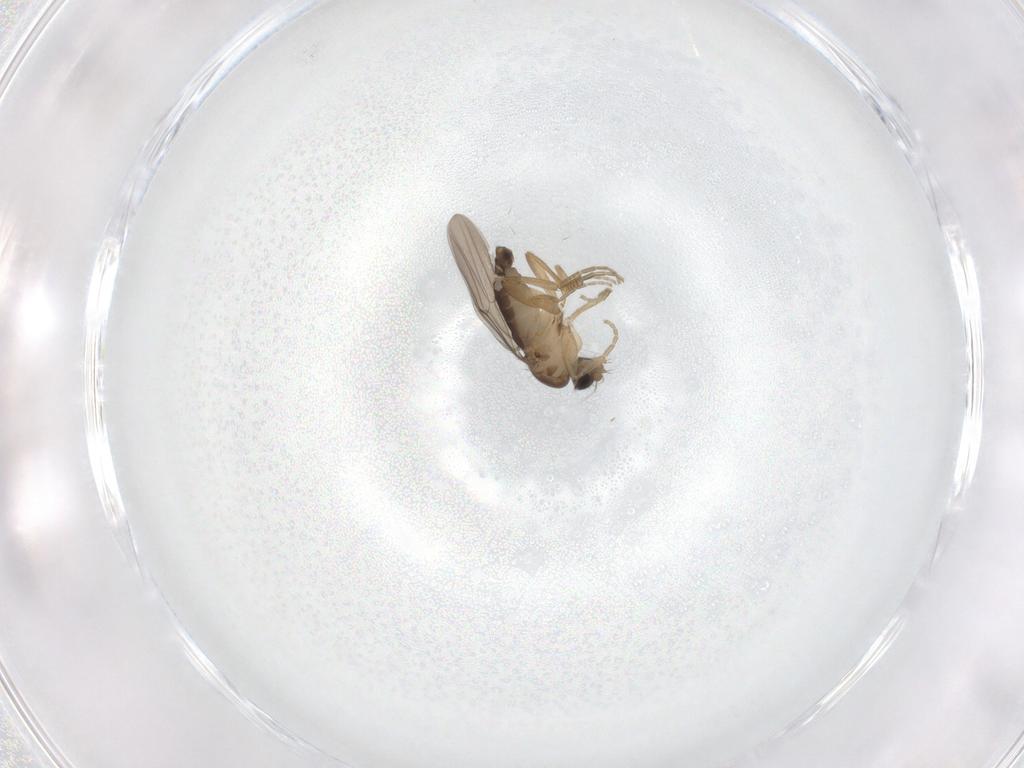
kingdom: Animalia
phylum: Arthropoda
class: Insecta
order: Diptera
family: Phoridae
